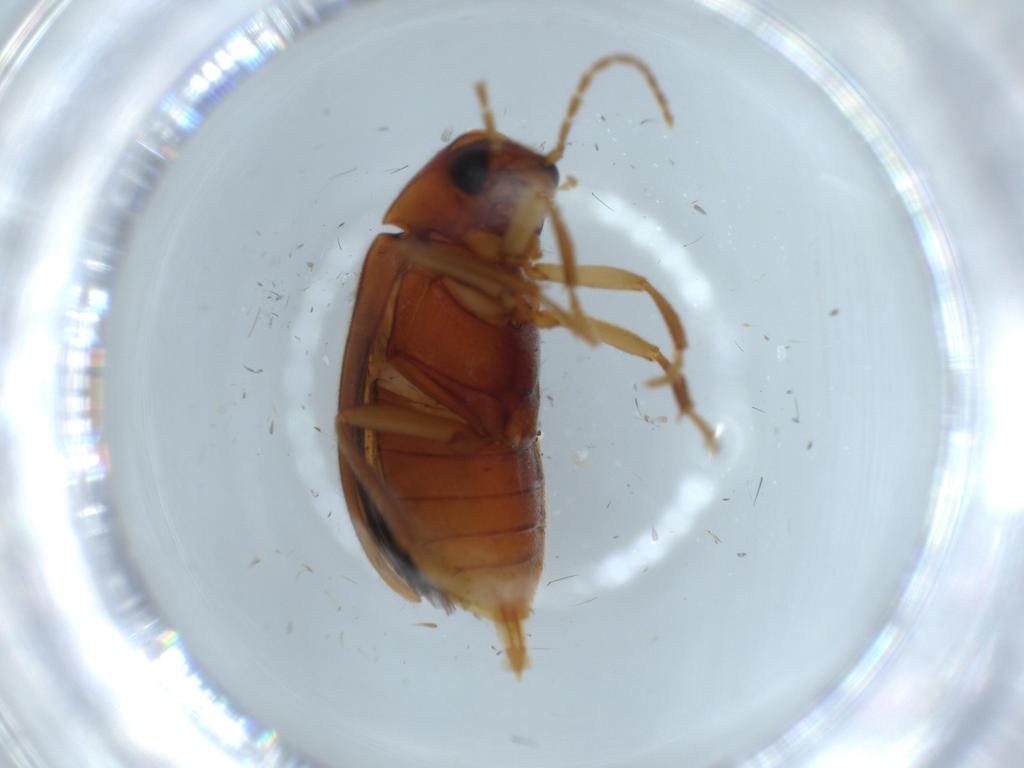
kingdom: Animalia
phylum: Arthropoda
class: Insecta
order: Coleoptera
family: Ptilodactylidae
